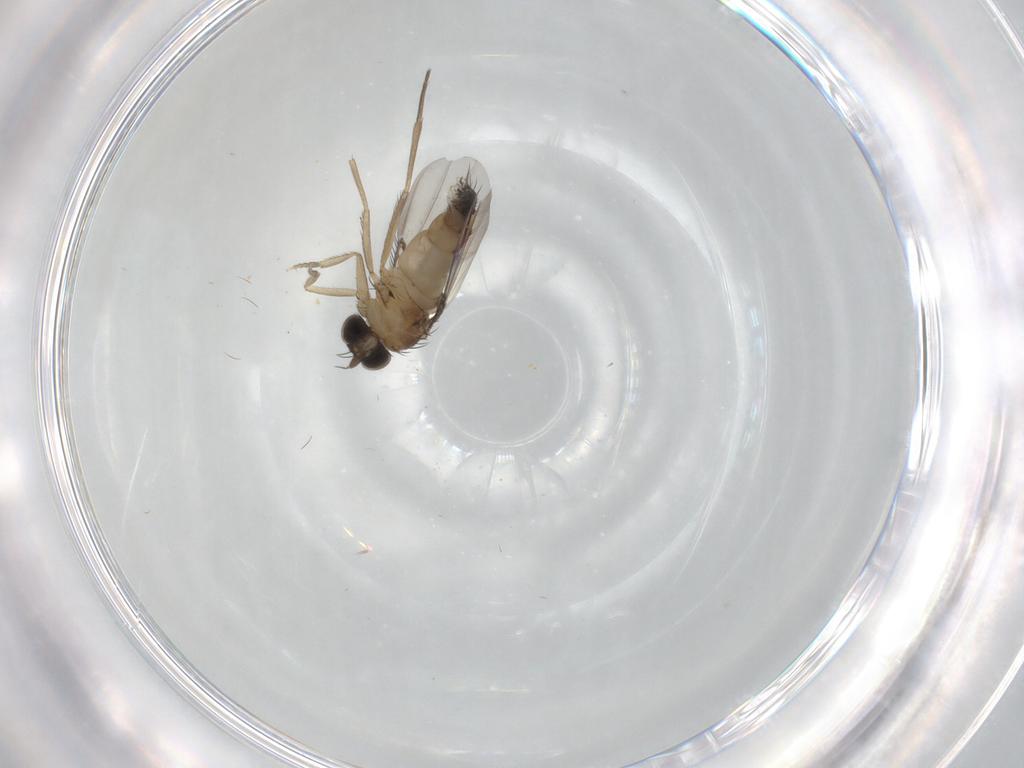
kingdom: Animalia
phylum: Arthropoda
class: Insecta
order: Diptera
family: Phoridae
